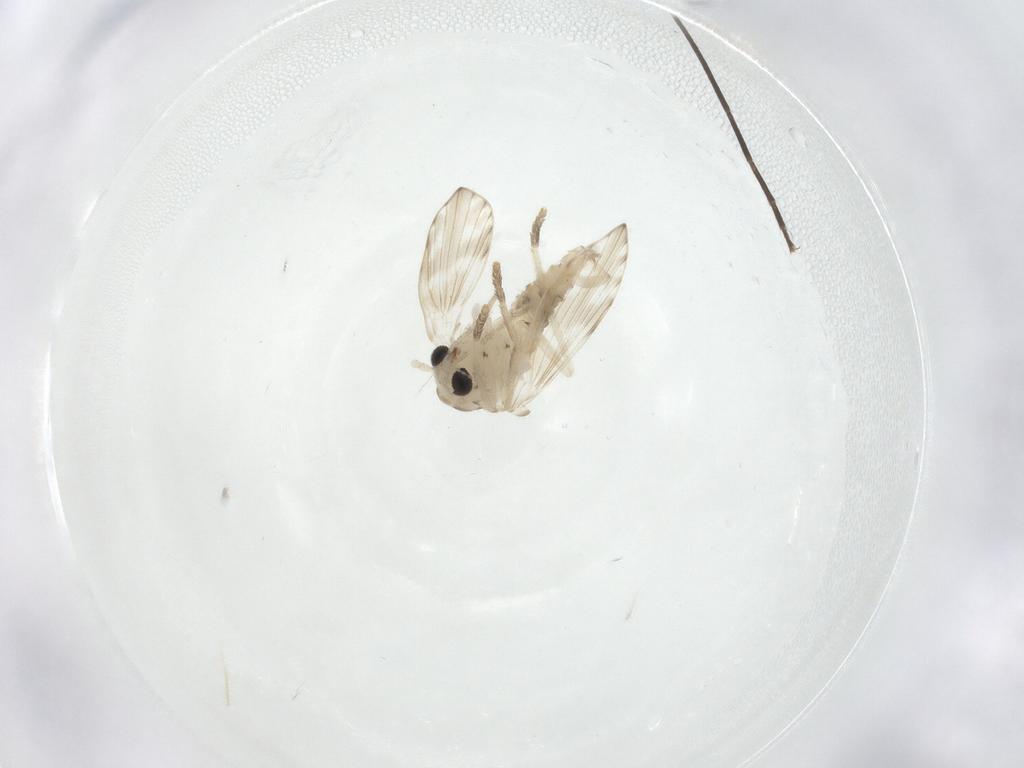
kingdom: Animalia
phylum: Arthropoda
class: Insecta
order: Diptera
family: Psychodidae
